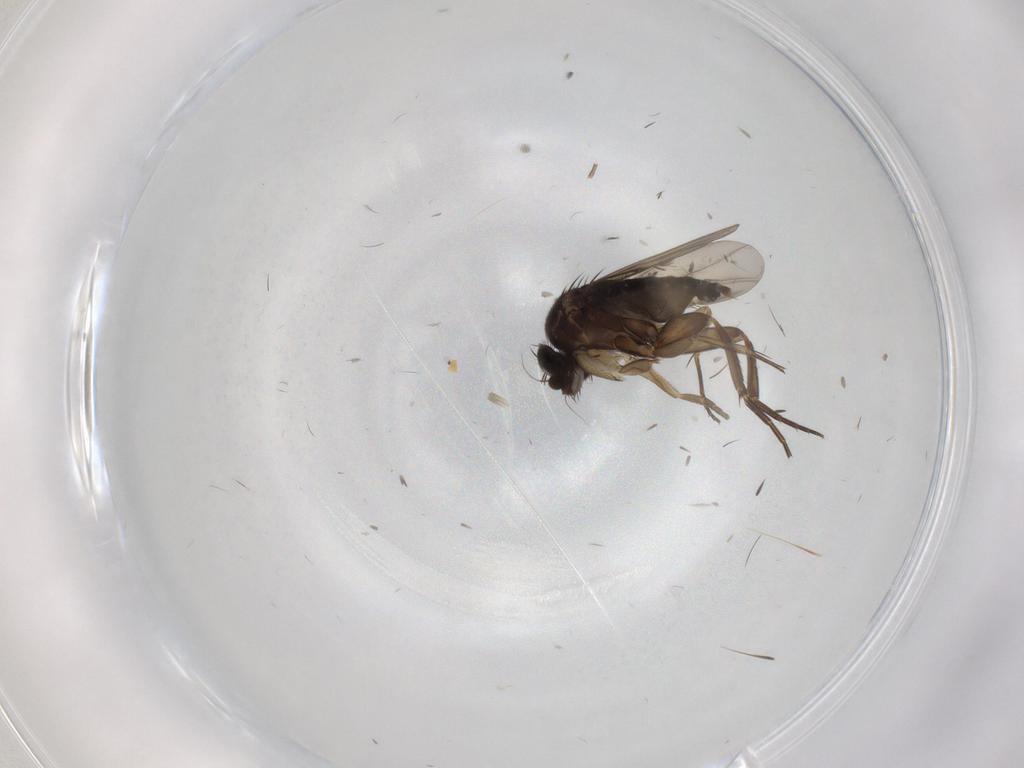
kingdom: Animalia
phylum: Arthropoda
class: Insecta
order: Diptera
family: Phoridae
